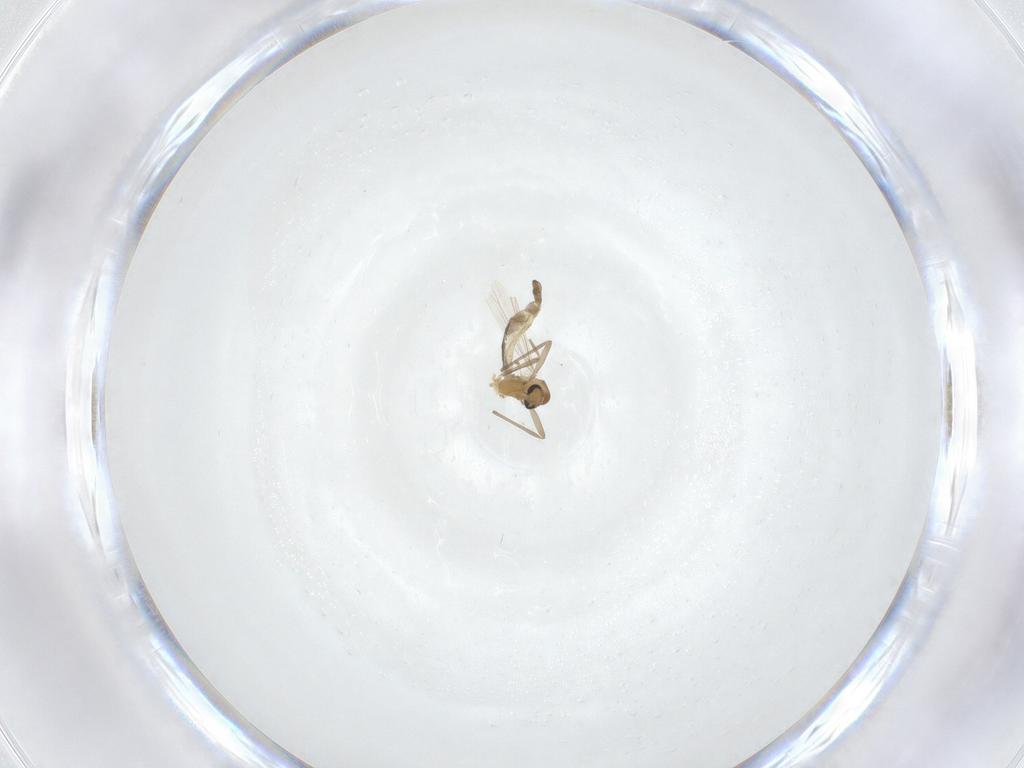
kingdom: Animalia
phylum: Arthropoda
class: Insecta
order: Diptera
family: Chironomidae
